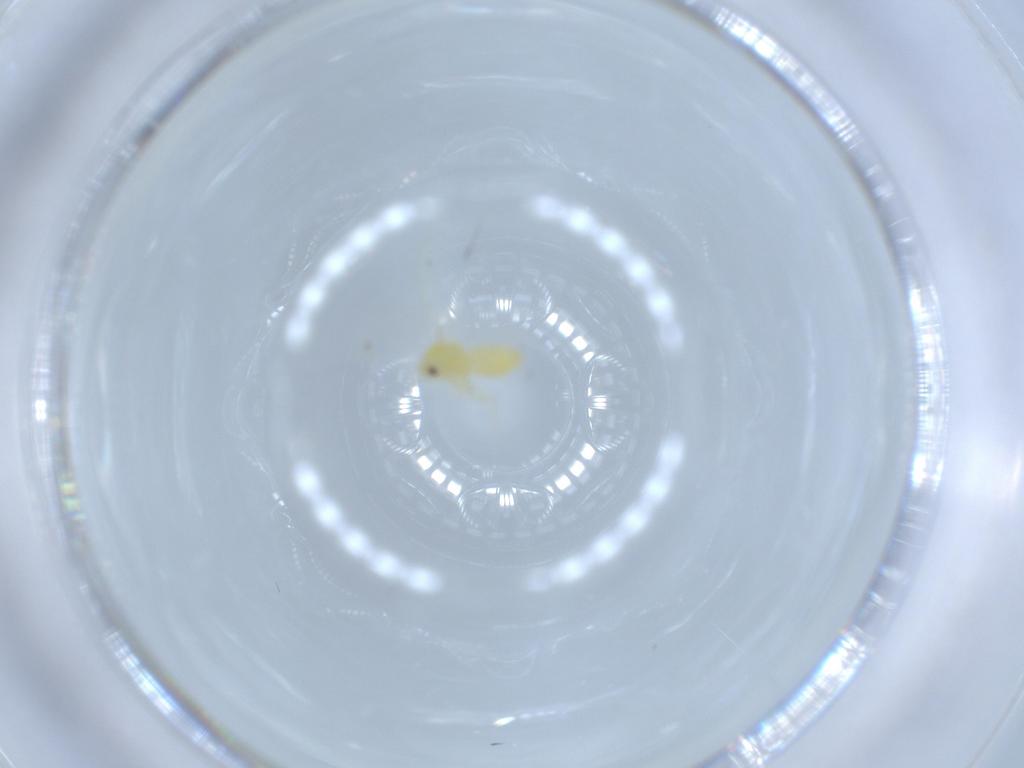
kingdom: Animalia
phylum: Arthropoda
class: Insecta
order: Hemiptera
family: Aleyrodidae
